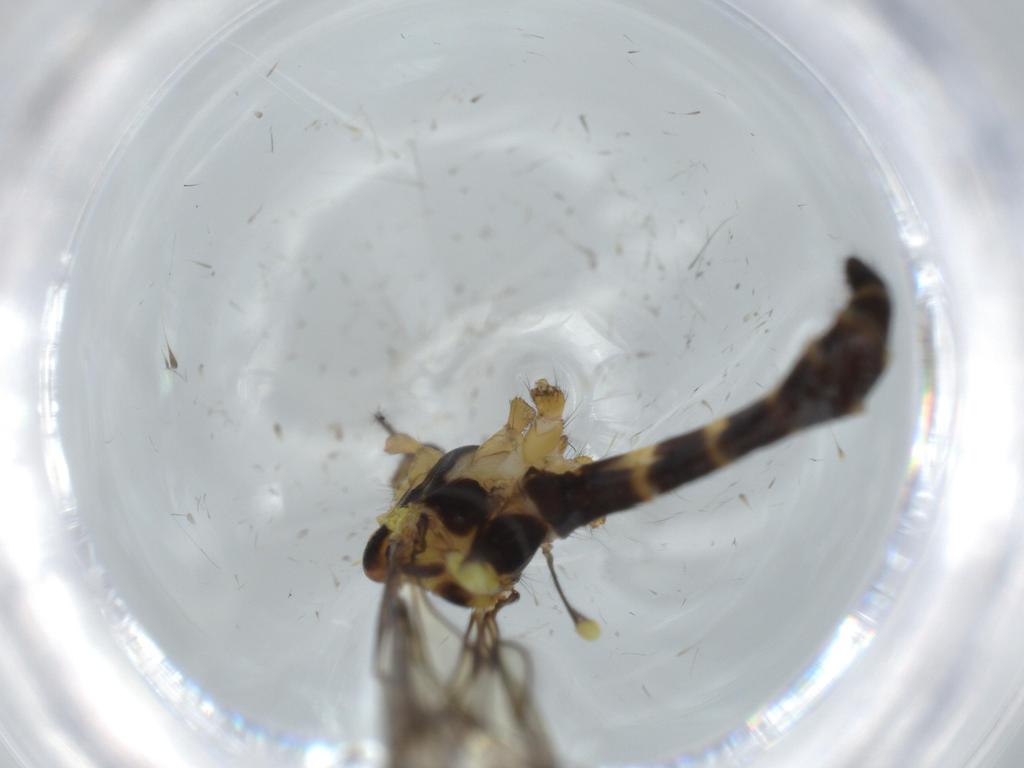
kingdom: Animalia
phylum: Arthropoda
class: Insecta
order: Diptera
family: Limoniidae
